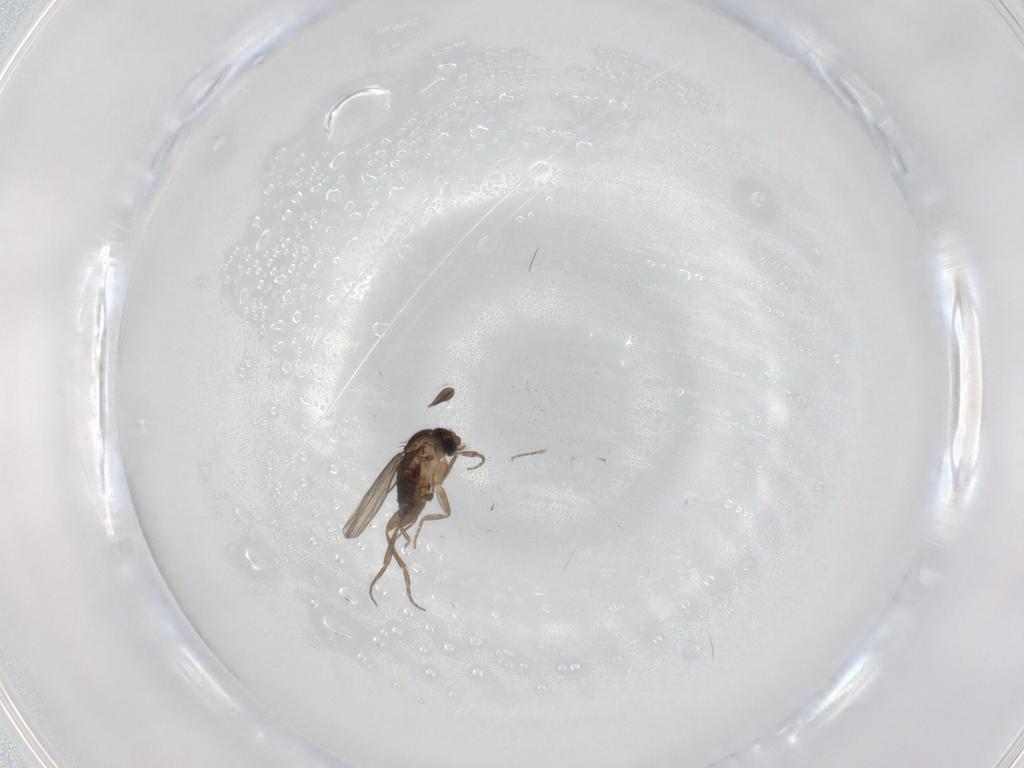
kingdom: Animalia
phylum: Arthropoda
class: Insecta
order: Diptera
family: Sciaridae
